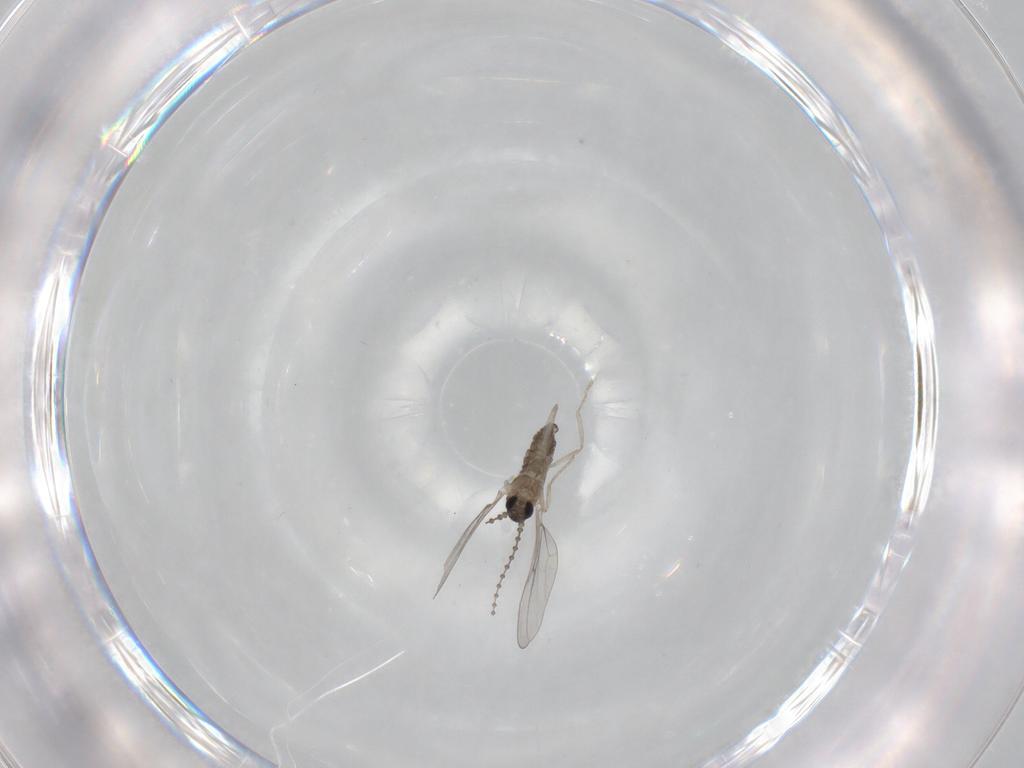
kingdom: Animalia
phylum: Arthropoda
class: Insecta
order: Diptera
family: Cecidomyiidae
